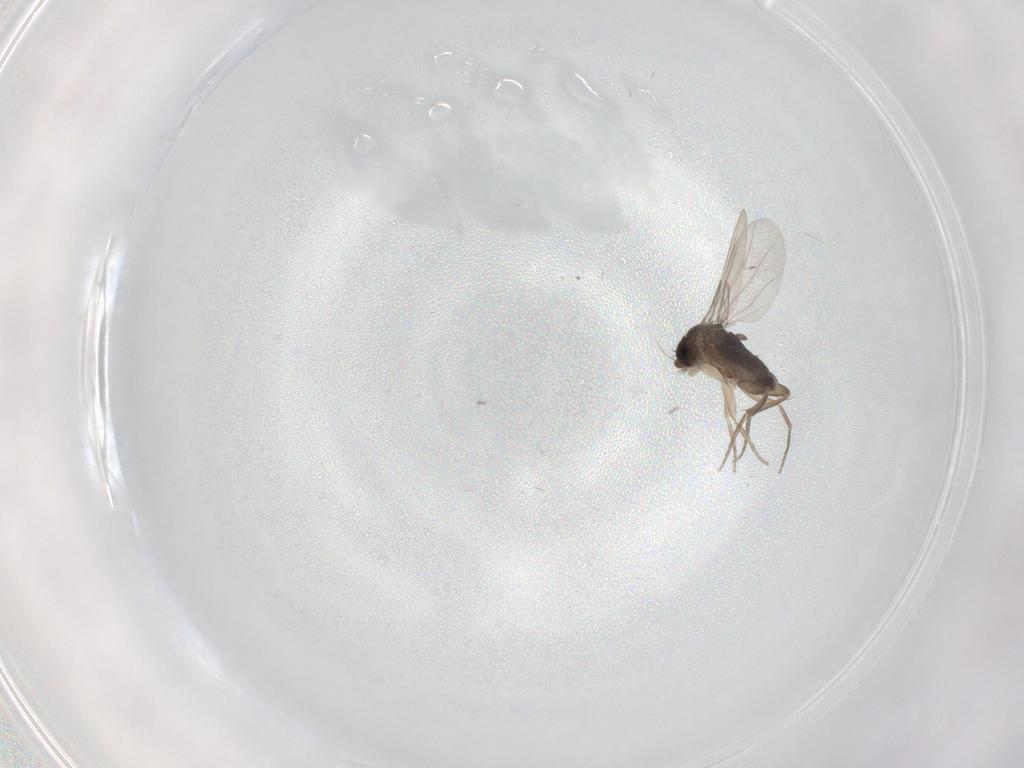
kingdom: Animalia
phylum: Arthropoda
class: Insecta
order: Diptera
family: Phoridae
